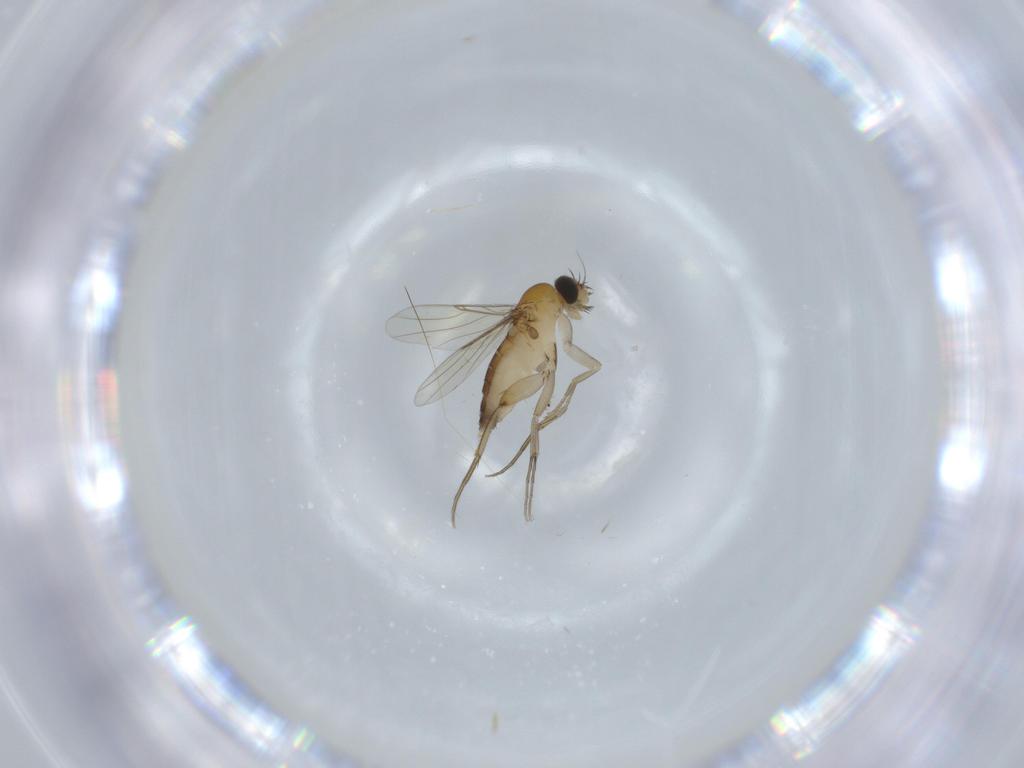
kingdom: Animalia
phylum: Arthropoda
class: Insecta
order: Diptera
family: Phoridae
